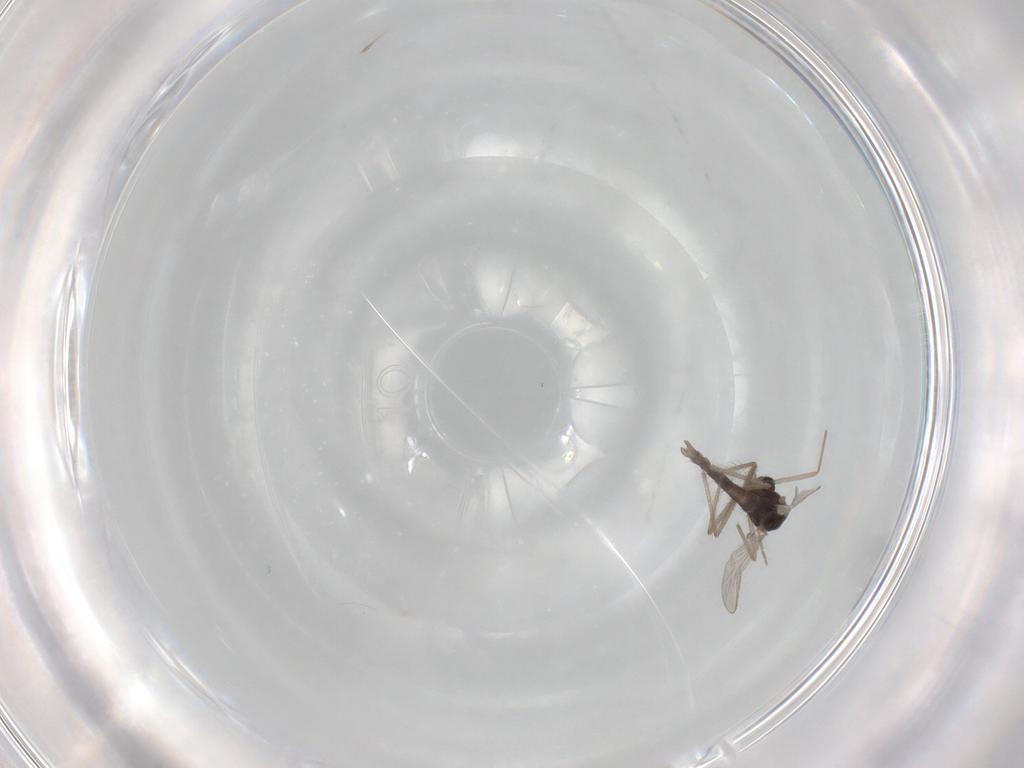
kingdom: Animalia
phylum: Arthropoda
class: Insecta
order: Diptera
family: Chironomidae
